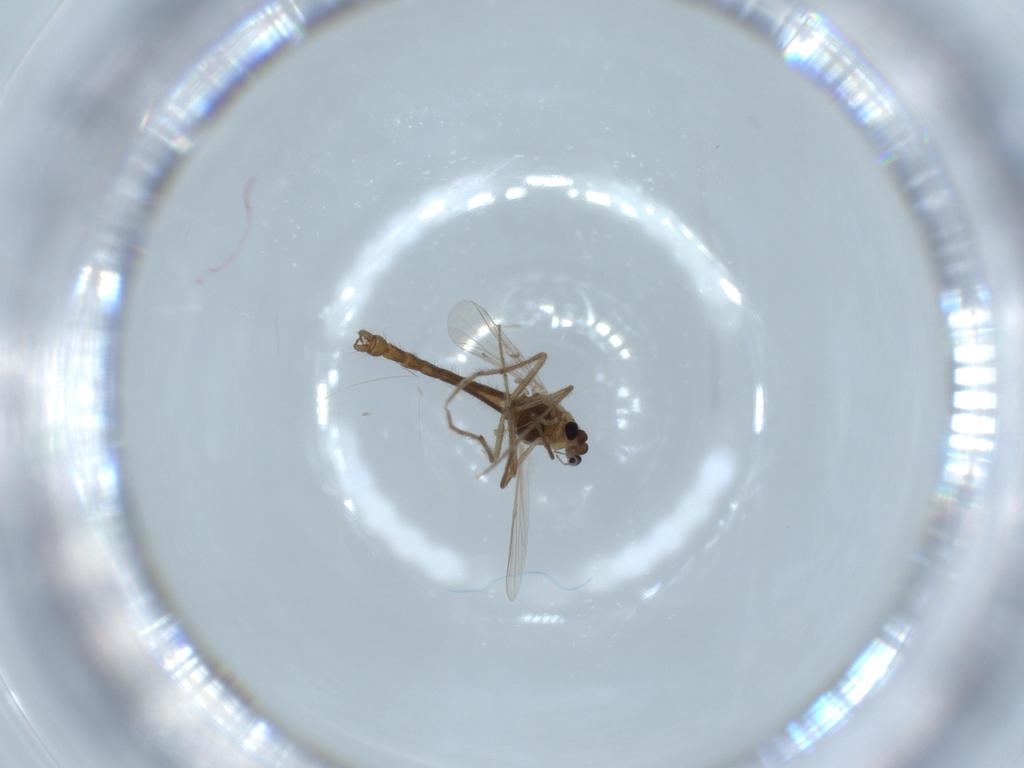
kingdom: Animalia
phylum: Arthropoda
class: Insecta
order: Diptera
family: Chironomidae
